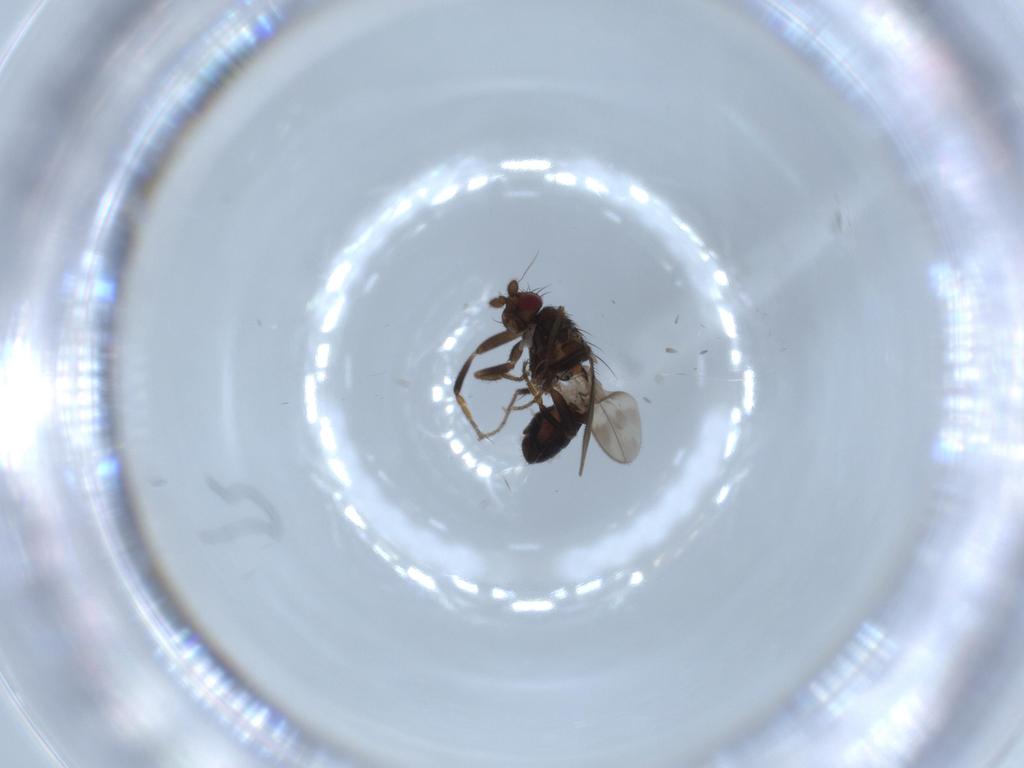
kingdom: Animalia
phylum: Arthropoda
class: Insecta
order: Diptera
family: Sphaeroceridae
